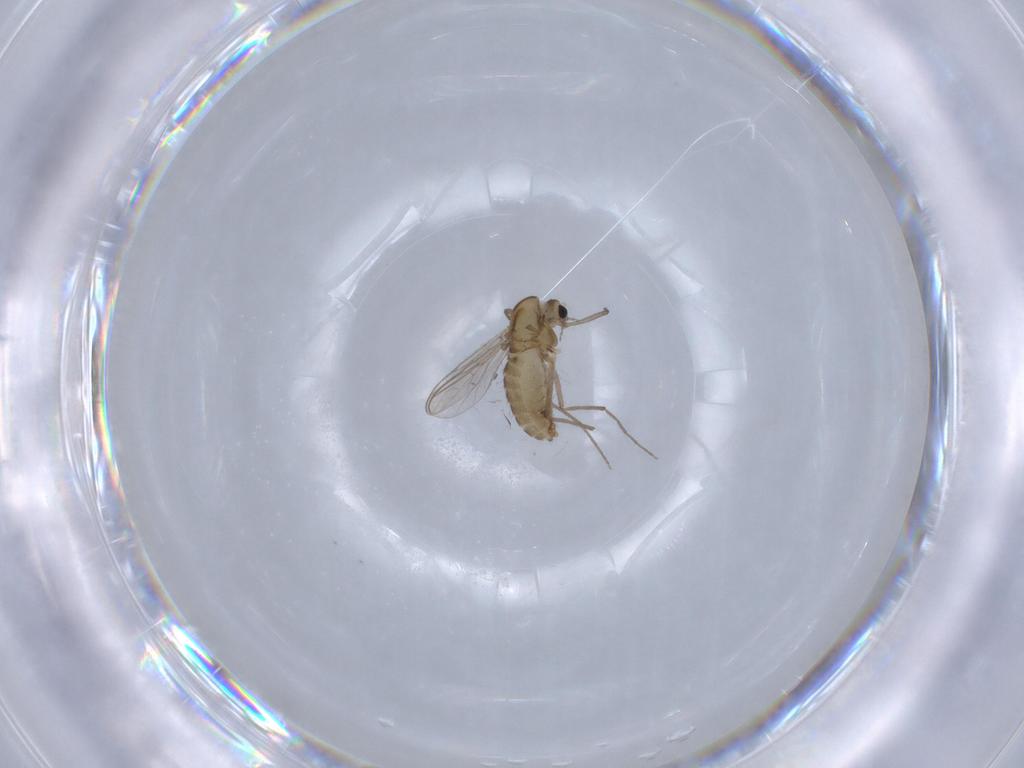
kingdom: Animalia
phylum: Arthropoda
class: Insecta
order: Diptera
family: Chironomidae
